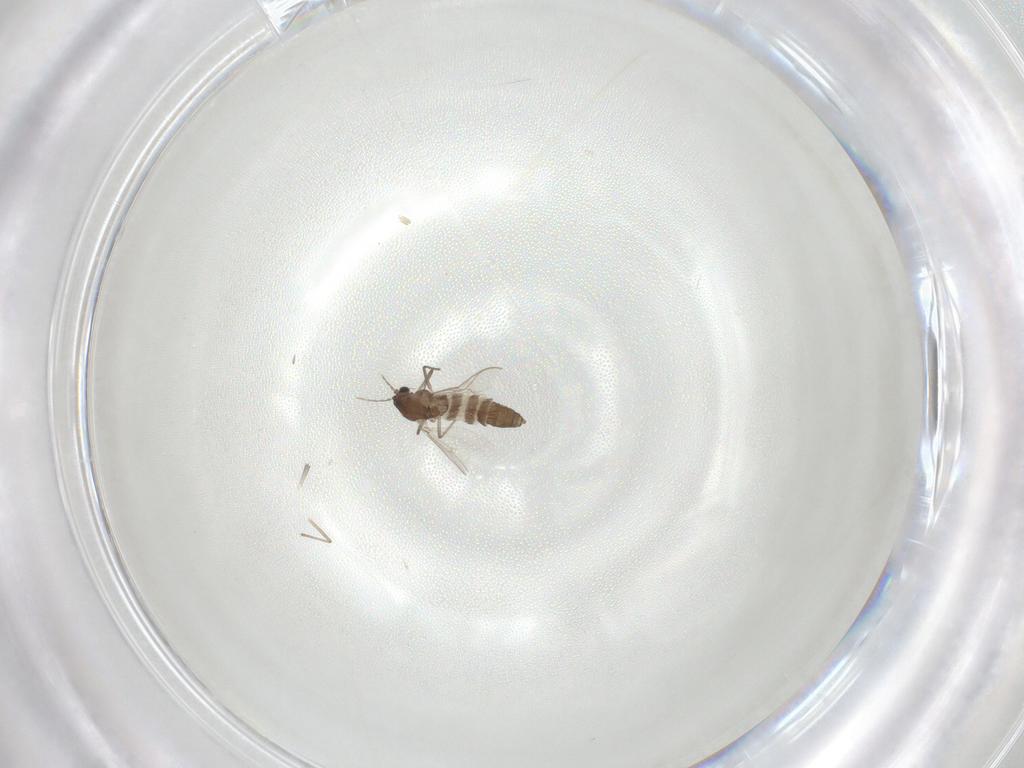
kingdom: Animalia
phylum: Arthropoda
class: Insecta
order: Diptera
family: Chironomidae
